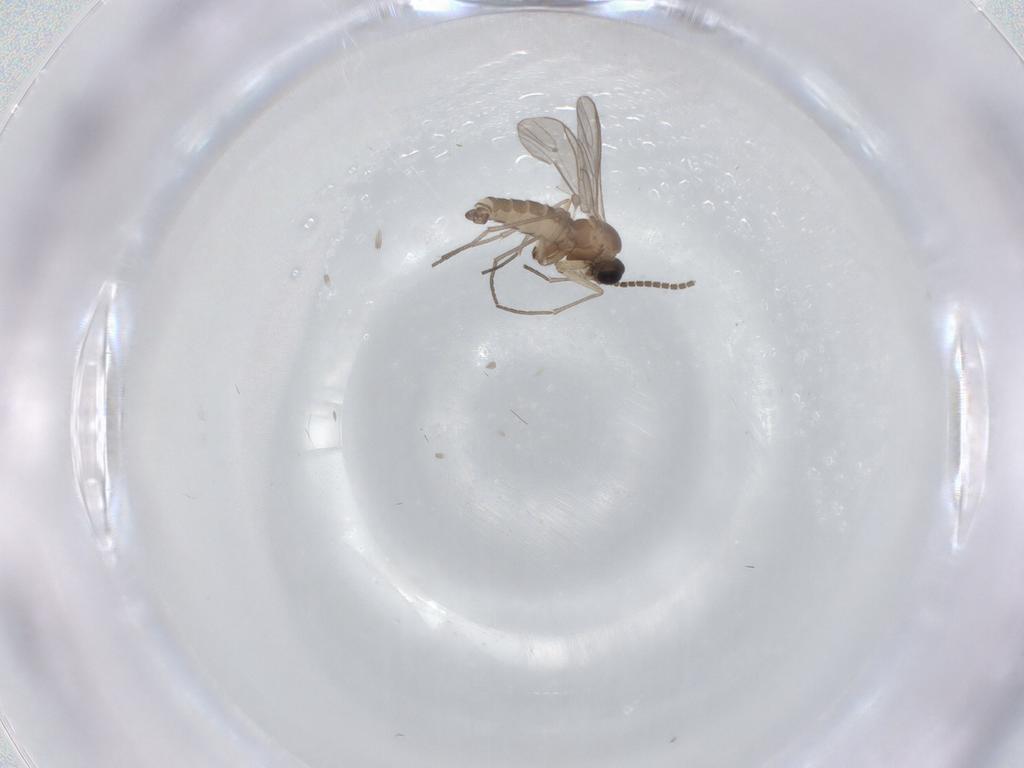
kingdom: Animalia
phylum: Arthropoda
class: Insecta
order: Diptera
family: Sciaridae
